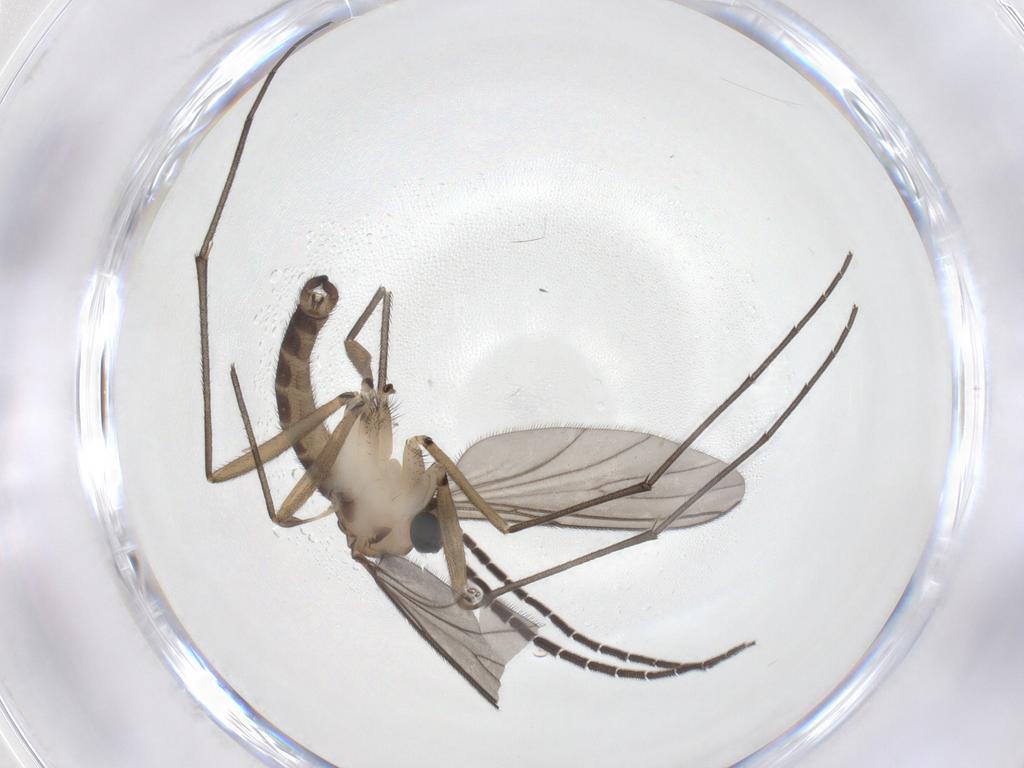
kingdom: Animalia
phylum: Arthropoda
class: Insecta
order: Diptera
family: Sciaridae
